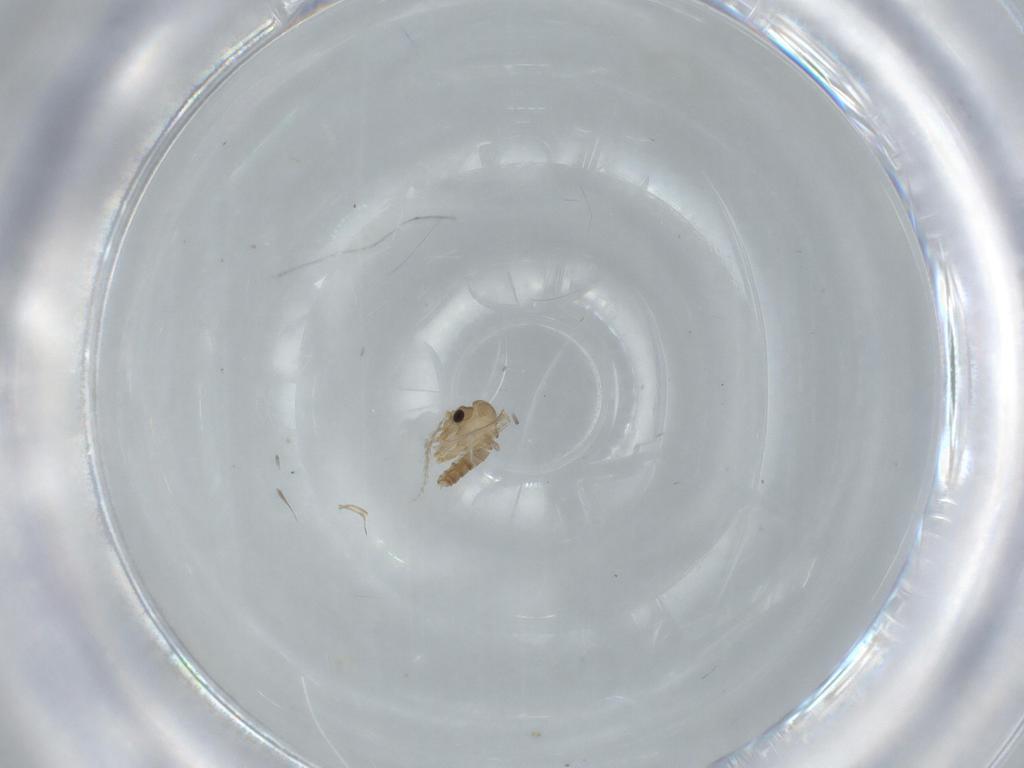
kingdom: Animalia
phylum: Arthropoda
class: Insecta
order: Diptera
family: Psychodidae
